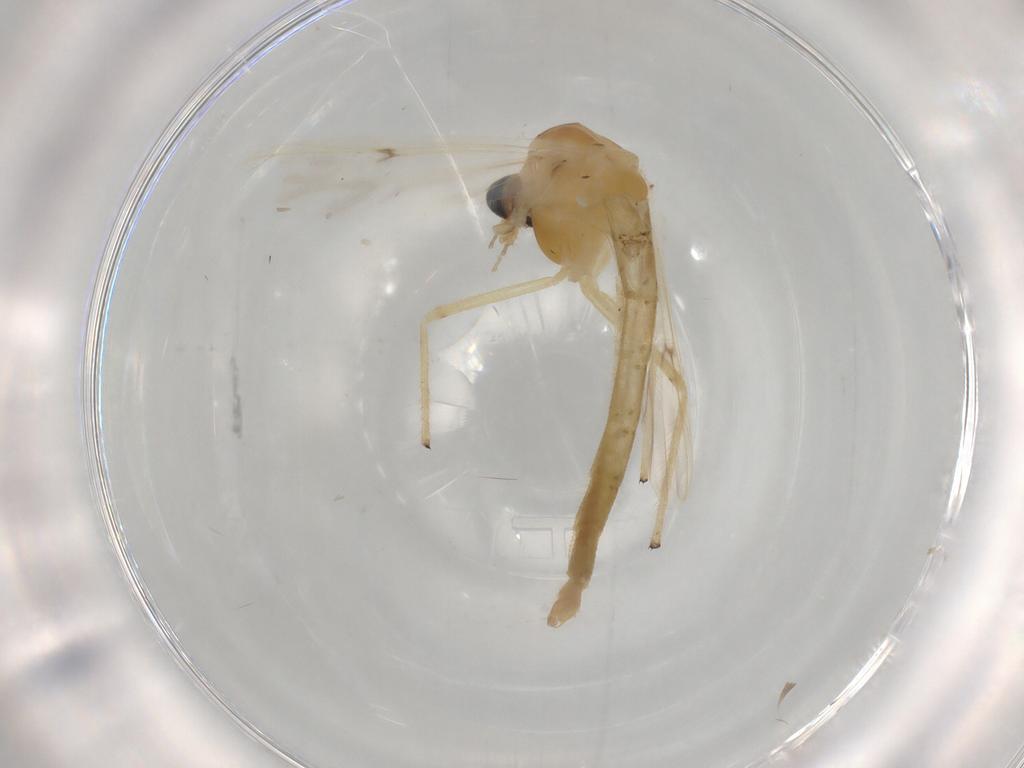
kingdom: Animalia
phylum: Arthropoda
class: Insecta
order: Diptera
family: Chironomidae
